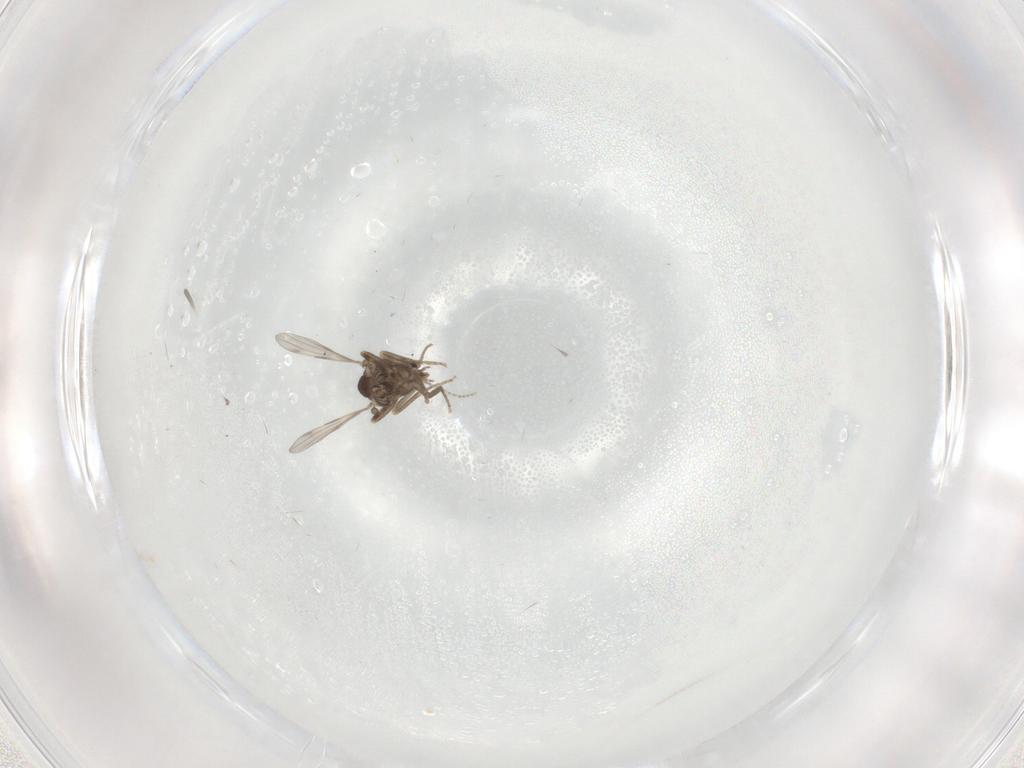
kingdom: Animalia
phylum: Arthropoda
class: Insecta
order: Diptera
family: Ceratopogonidae
